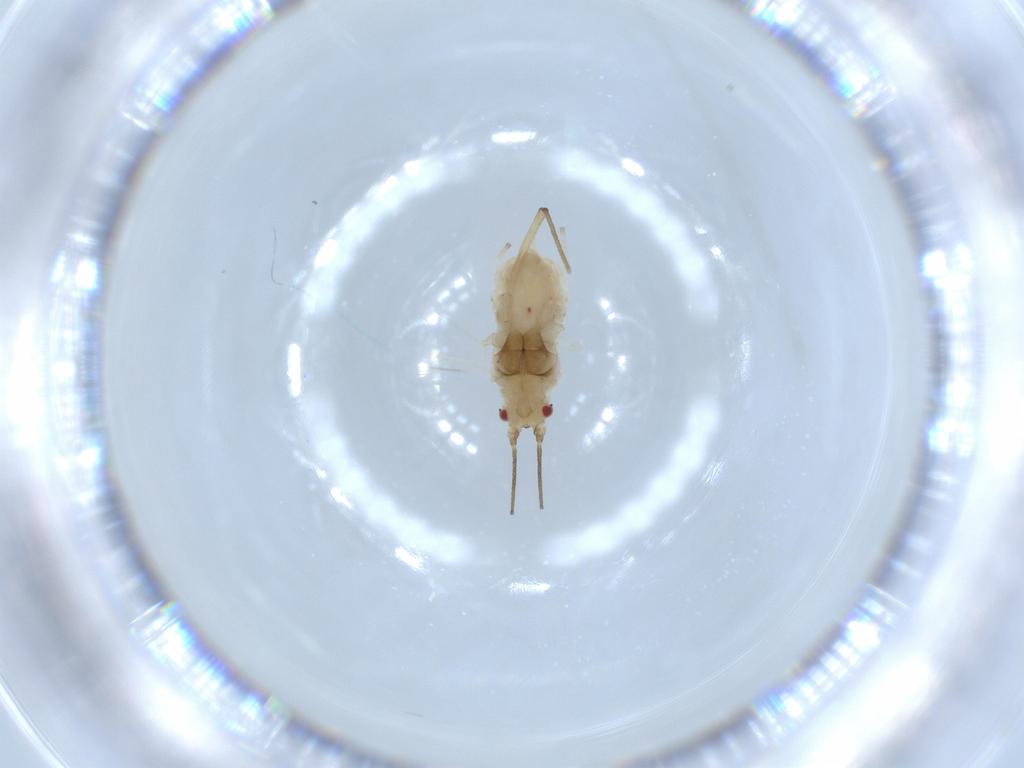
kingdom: Animalia
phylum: Arthropoda
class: Insecta
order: Hemiptera
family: Aphididae
